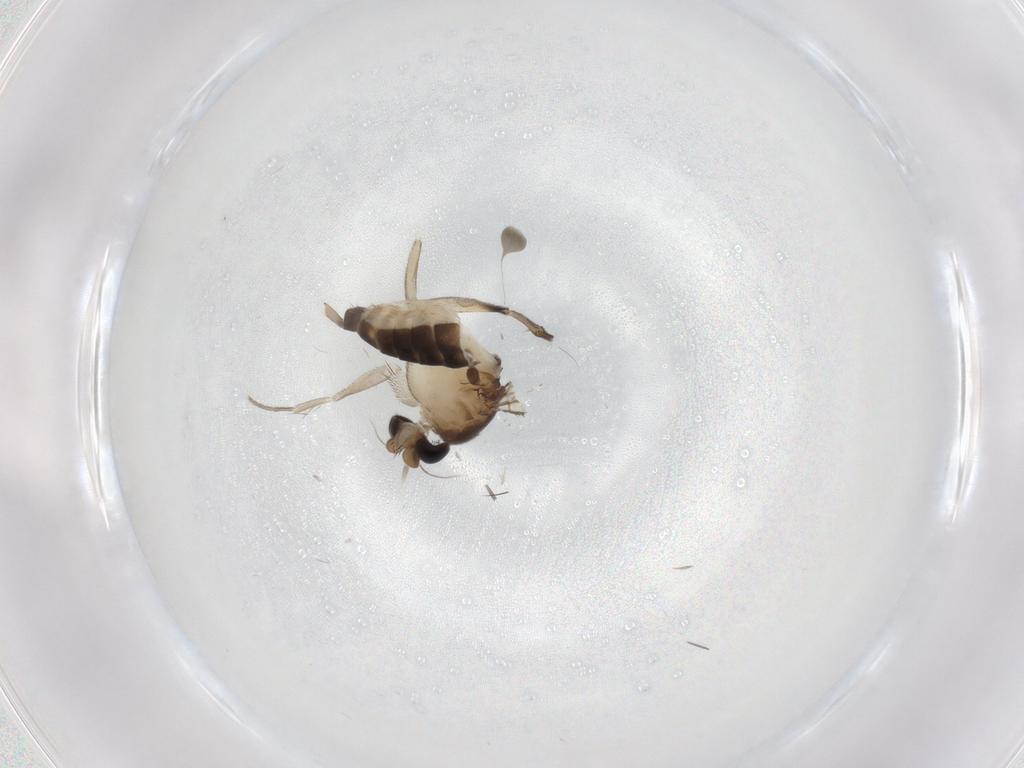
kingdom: Animalia
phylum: Arthropoda
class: Insecta
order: Diptera
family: Phoridae
